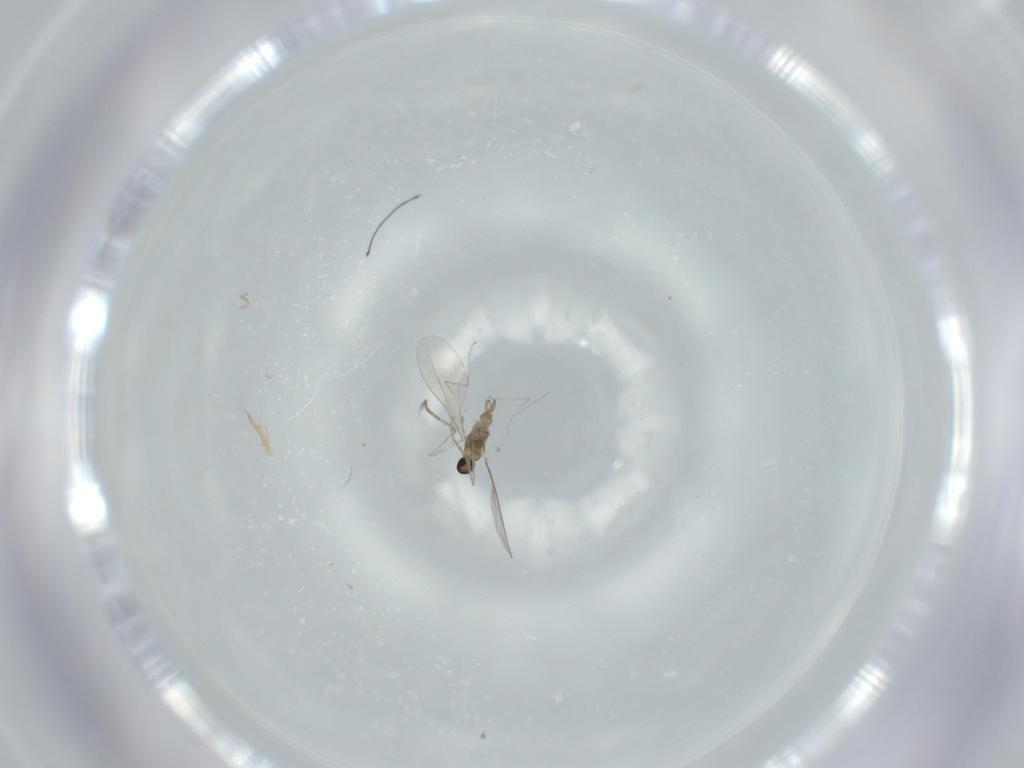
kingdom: Animalia
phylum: Arthropoda
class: Insecta
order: Diptera
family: Cecidomyiidae
